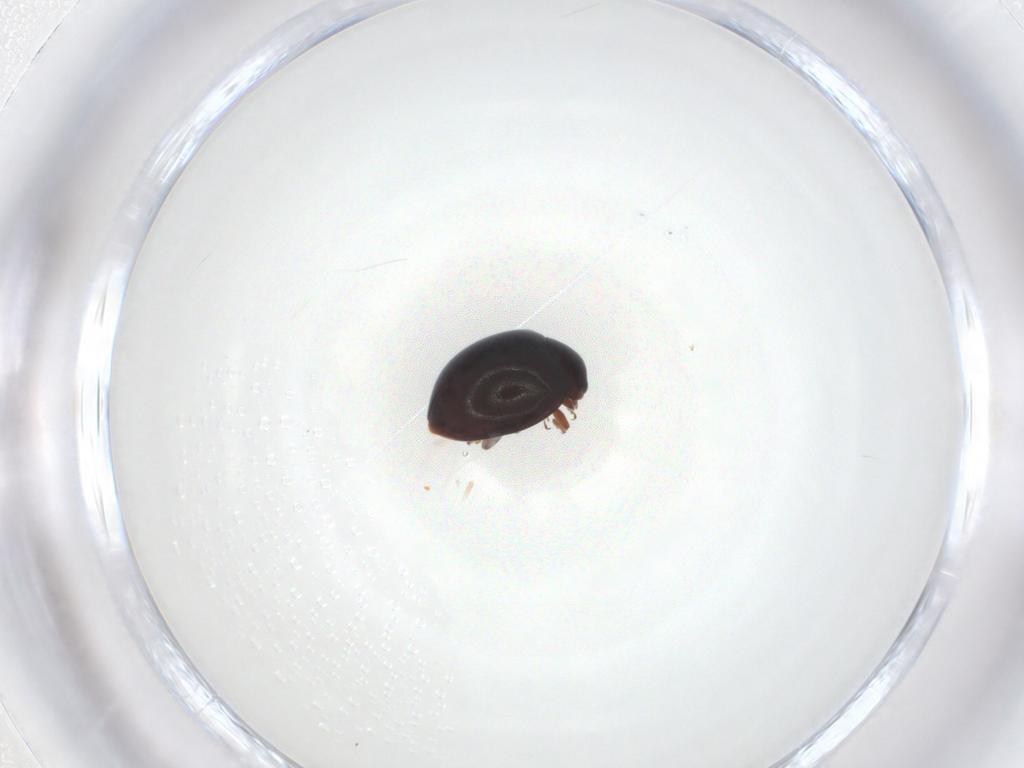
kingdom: Animalia
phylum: Arthropoda
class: Insecta
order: Coleoptera
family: Coccinellidae
